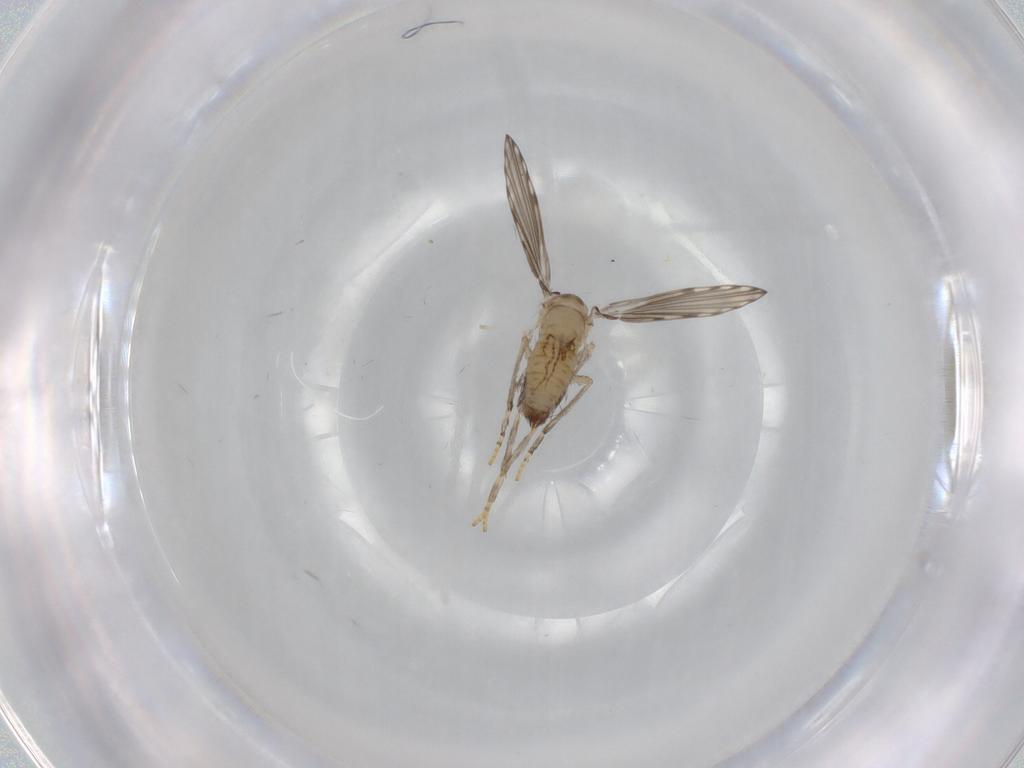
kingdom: Animalia
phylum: Arthropoda
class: Insecta
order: Diptera
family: Psychodidae
